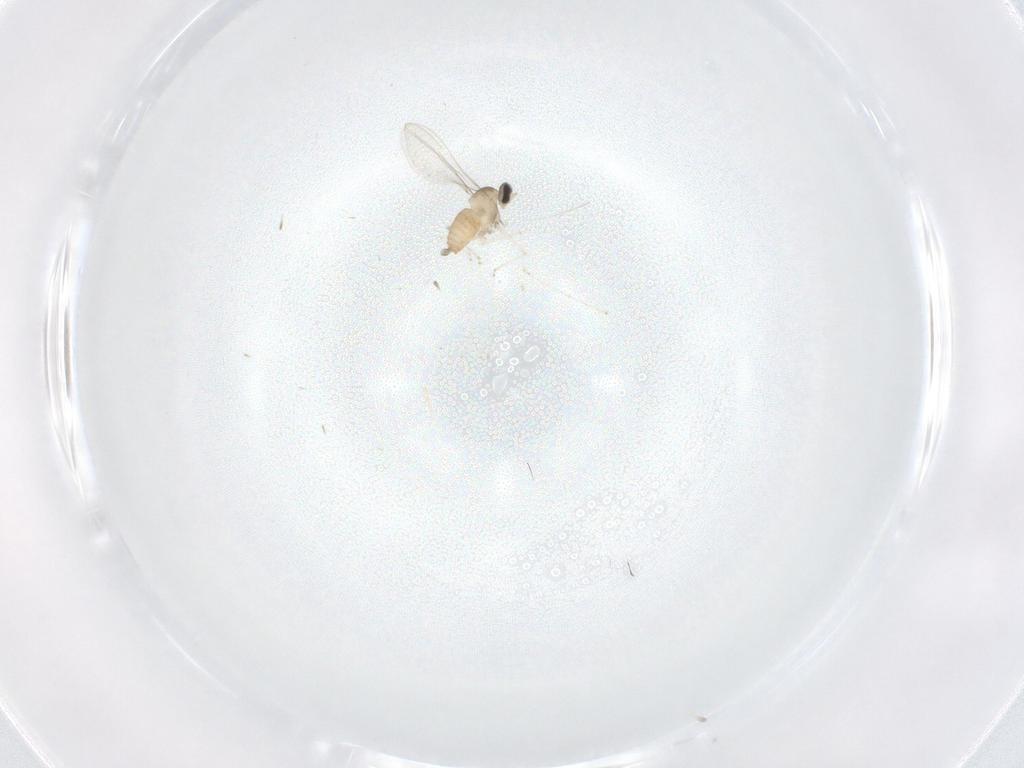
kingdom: Animalia
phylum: Arthropoda
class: Insecta
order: Diptera
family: Cecidomyiidae
